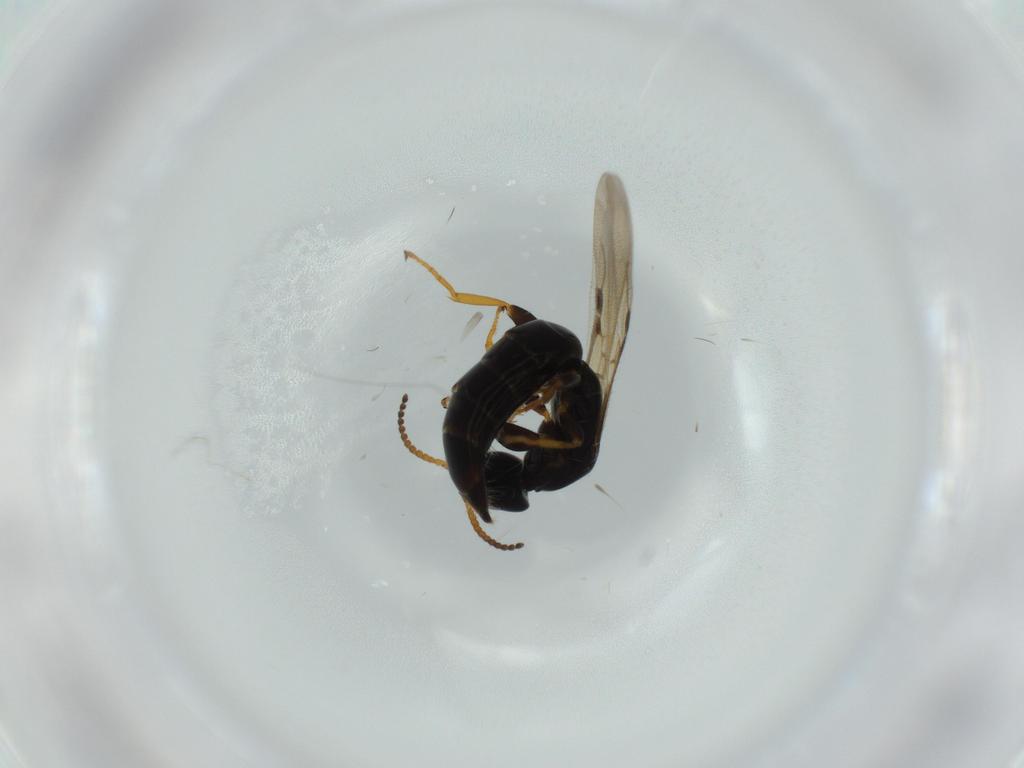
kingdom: Animalia
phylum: Arthropoda
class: Insecta
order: Hymenoptera
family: Bethylidae
